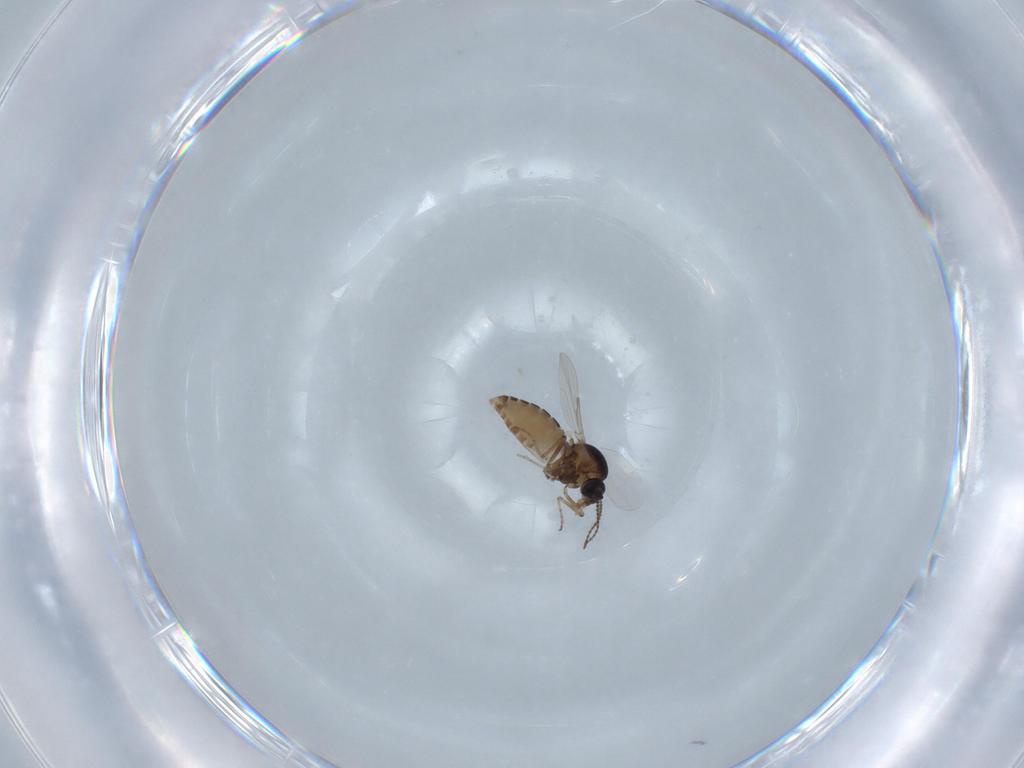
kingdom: Animalia
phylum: Arthropoda
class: Insecta
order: Diptera
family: Ceratopogonidae
